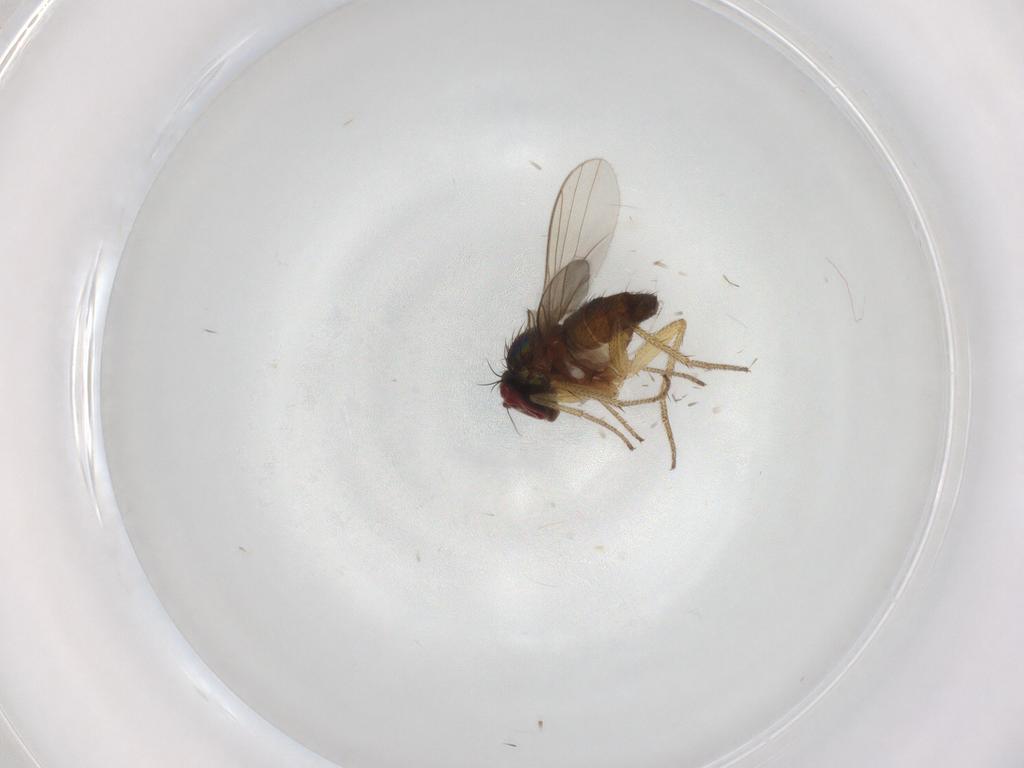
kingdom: Animalia
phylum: Arthropoda
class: Insecta
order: Diptera
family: Dolichopodidae
